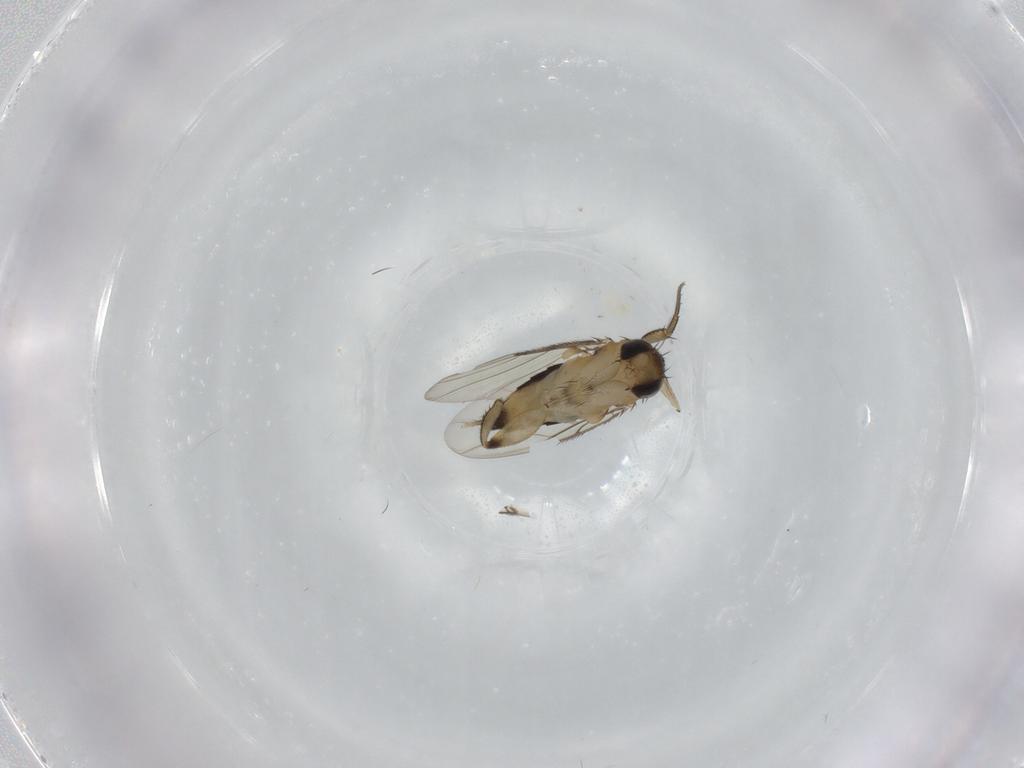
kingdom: Animalia
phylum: Arthropoda
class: Insecta
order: Diptera
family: Phoridae
